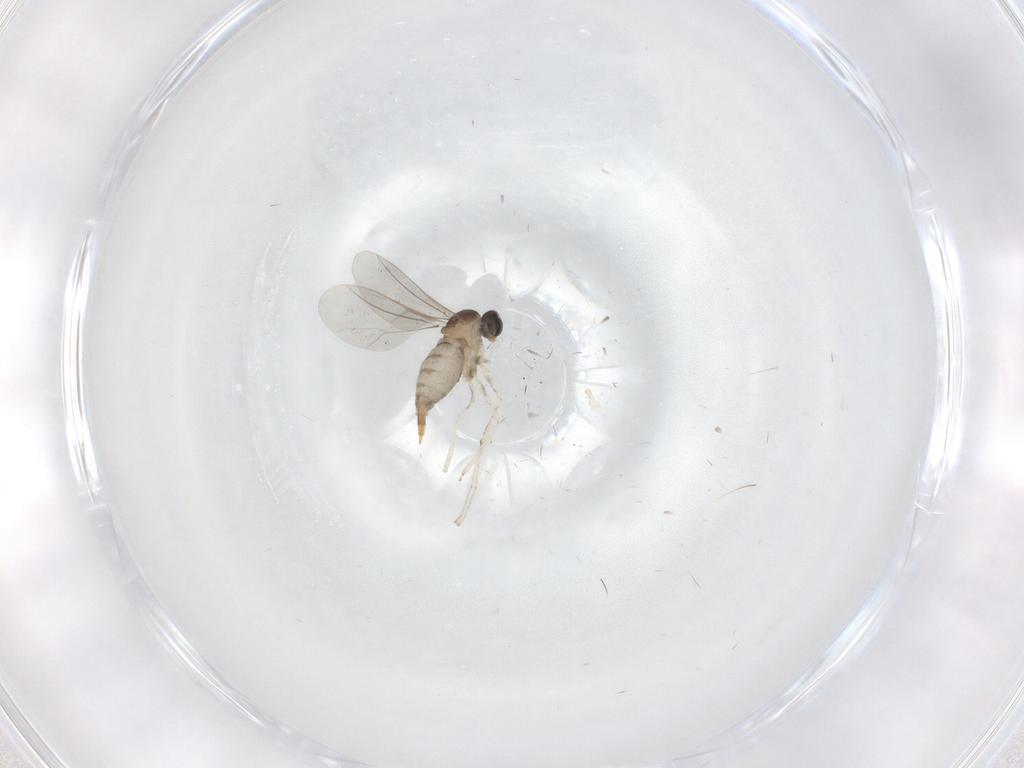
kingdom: Animalia
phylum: Arthropoda
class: Insecta
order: Diptera
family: Cecidomyiidae
